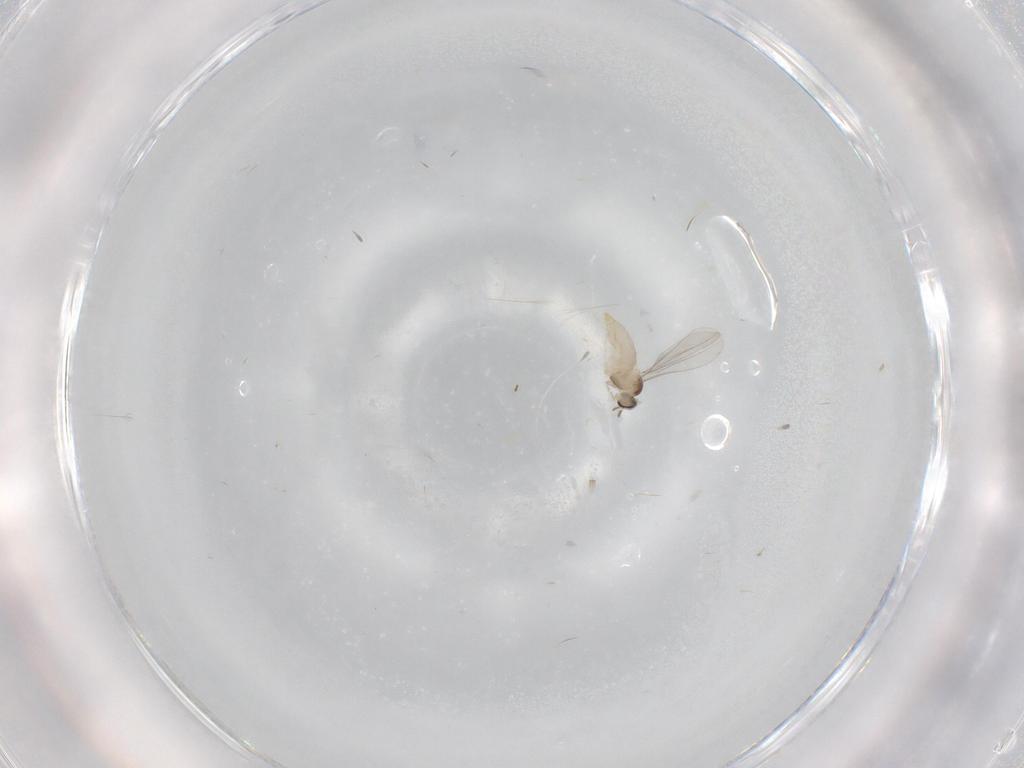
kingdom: Animalia
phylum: Arthropoda
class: Insecta
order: Diptera
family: Cecidomyiidae
